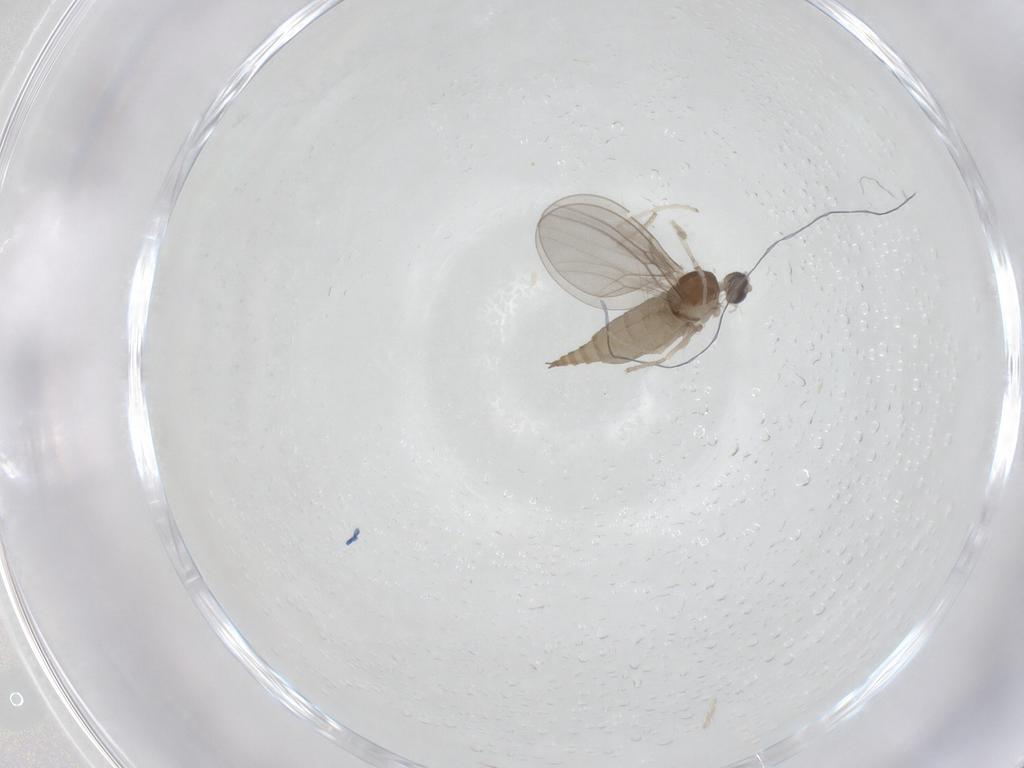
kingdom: Animalia
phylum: Arthropoda
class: Insecta
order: Diptera
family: Cecidomyiidae
